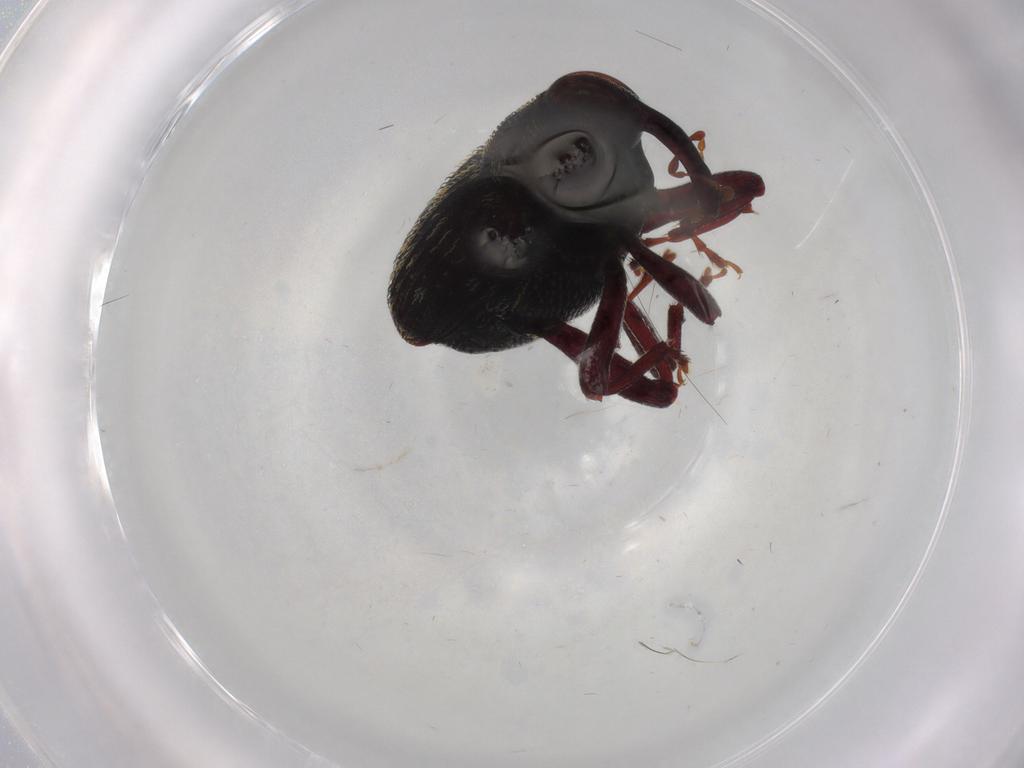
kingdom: Animalia
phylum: Arthropoda
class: Insecta
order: Coleoptera
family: Curculionidae
